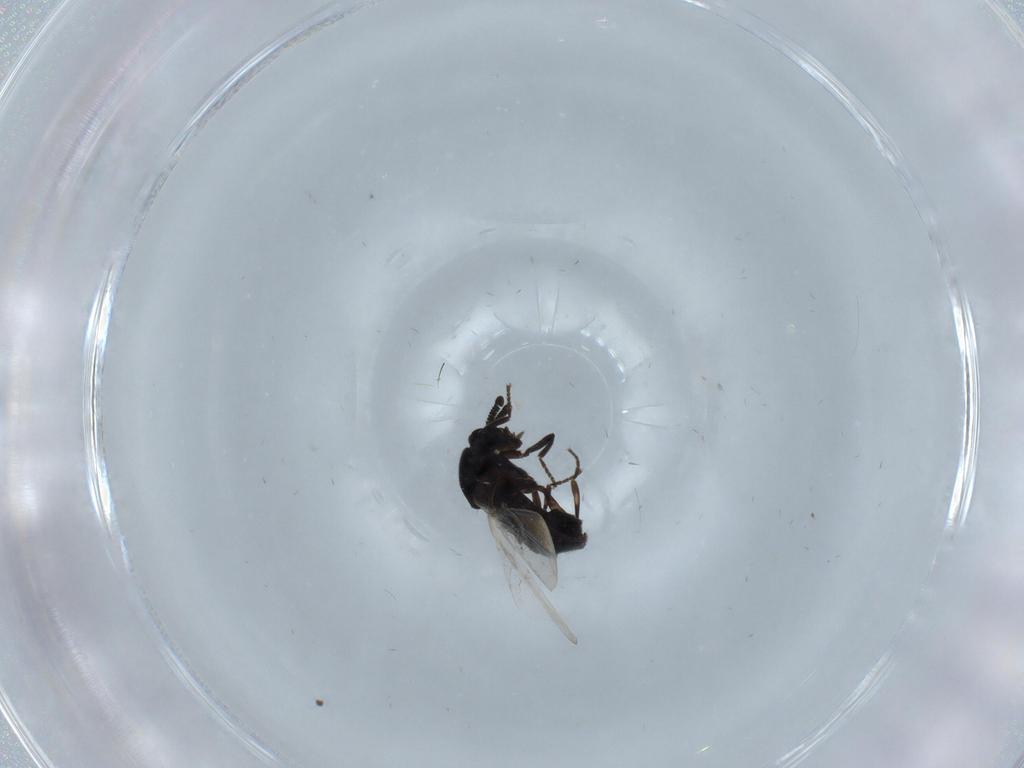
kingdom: Animalia
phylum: Arthropoda
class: Insecta
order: Diptera
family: Scatopsidae
